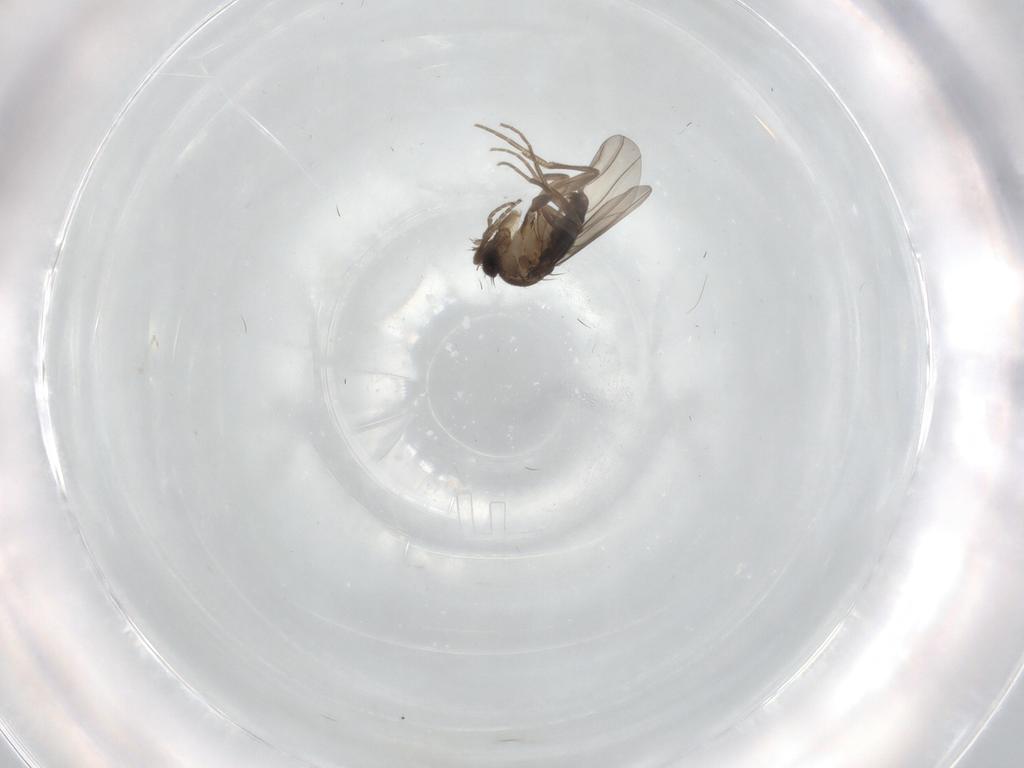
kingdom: Animalia
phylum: Arthropoda
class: Insecta
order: Diptera
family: Phoridae
